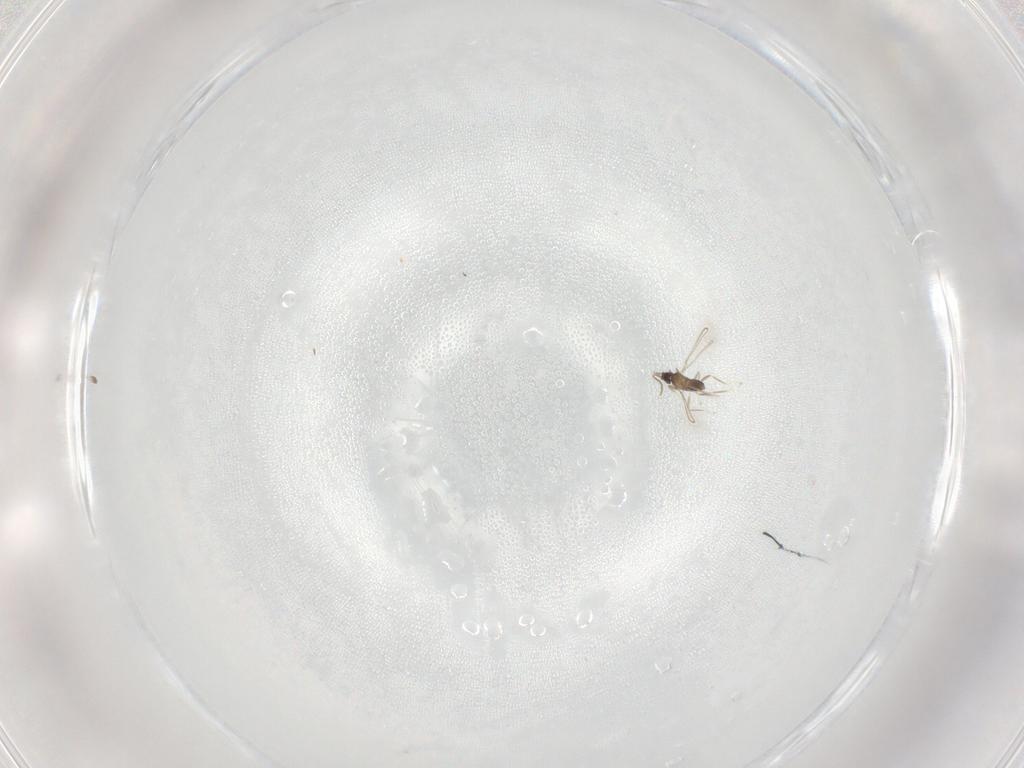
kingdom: Animalia
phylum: Arthropoda
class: Insecta
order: Hymenoptera
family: Mymaridae
